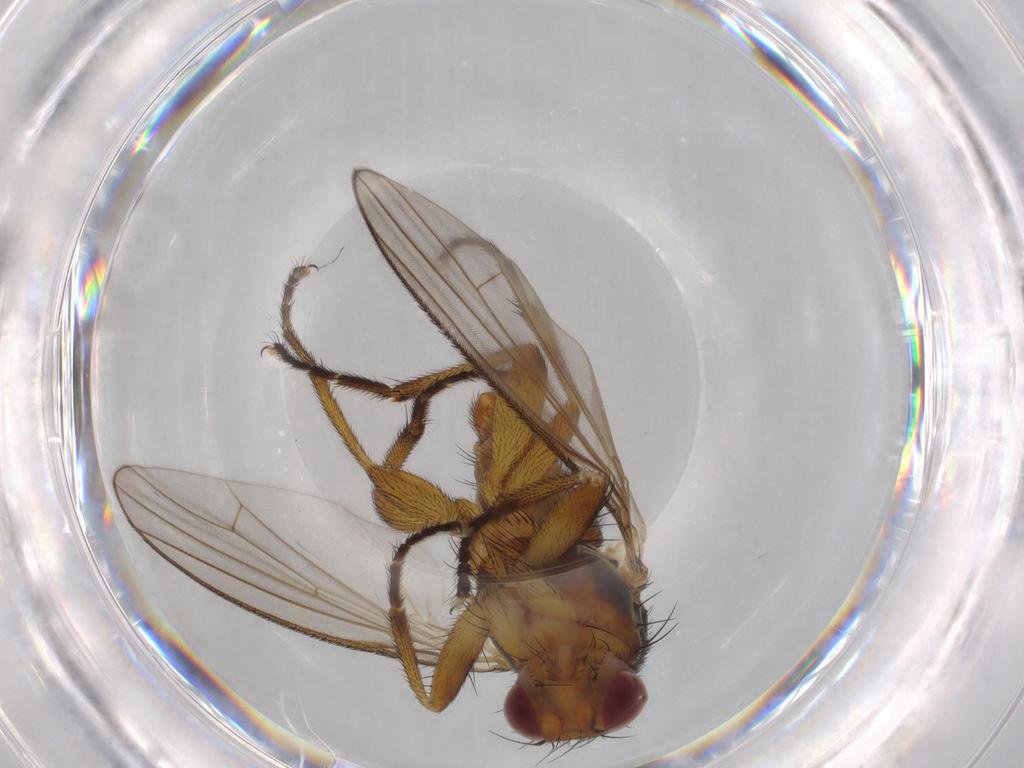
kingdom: Animalia
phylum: Arthropoda
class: Insecta
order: Diptera
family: Heleomyzidae
